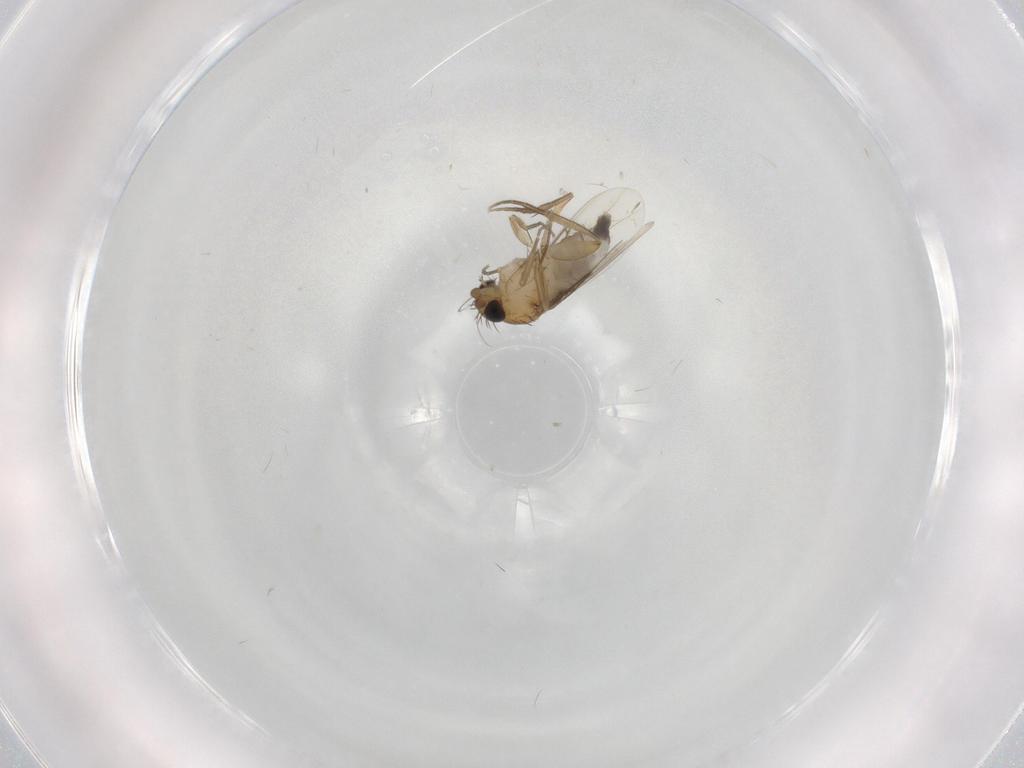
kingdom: Animalia
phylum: Arthropoda
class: Insecta
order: Diptera
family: Phoridae
